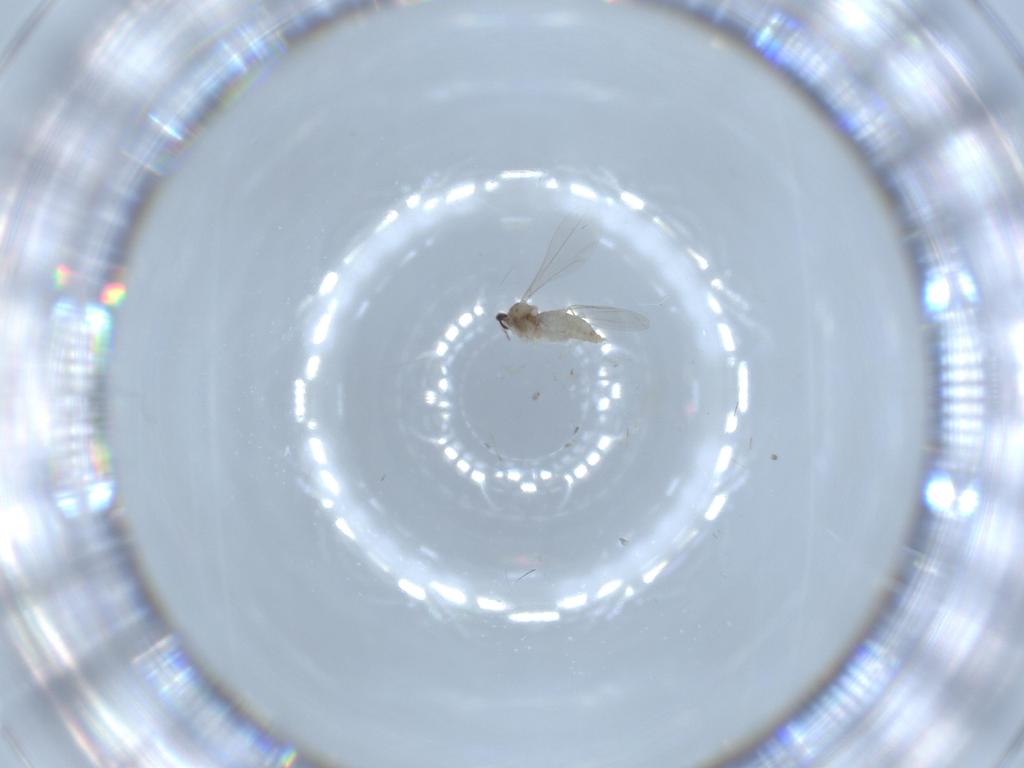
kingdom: Animalia
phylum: Arthropoda
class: Insecta
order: Diptera
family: Cecidomyiidae
